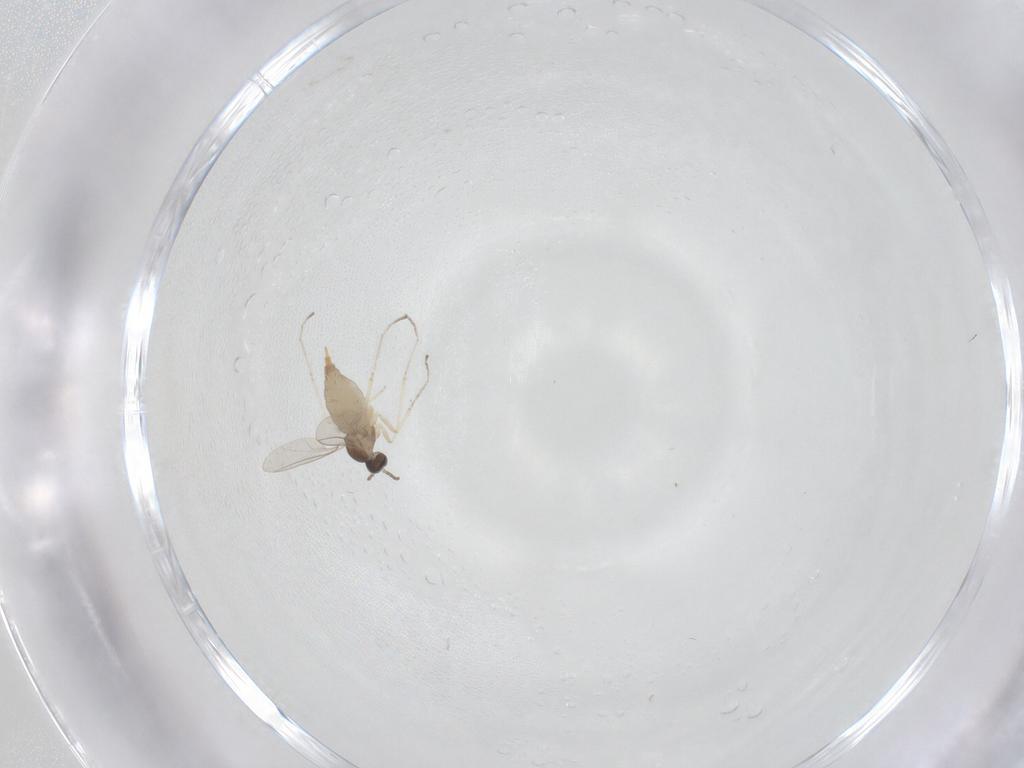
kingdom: Animalia
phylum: Arthropoda
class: Insecta
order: Diptera
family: Cecidomyiidae
